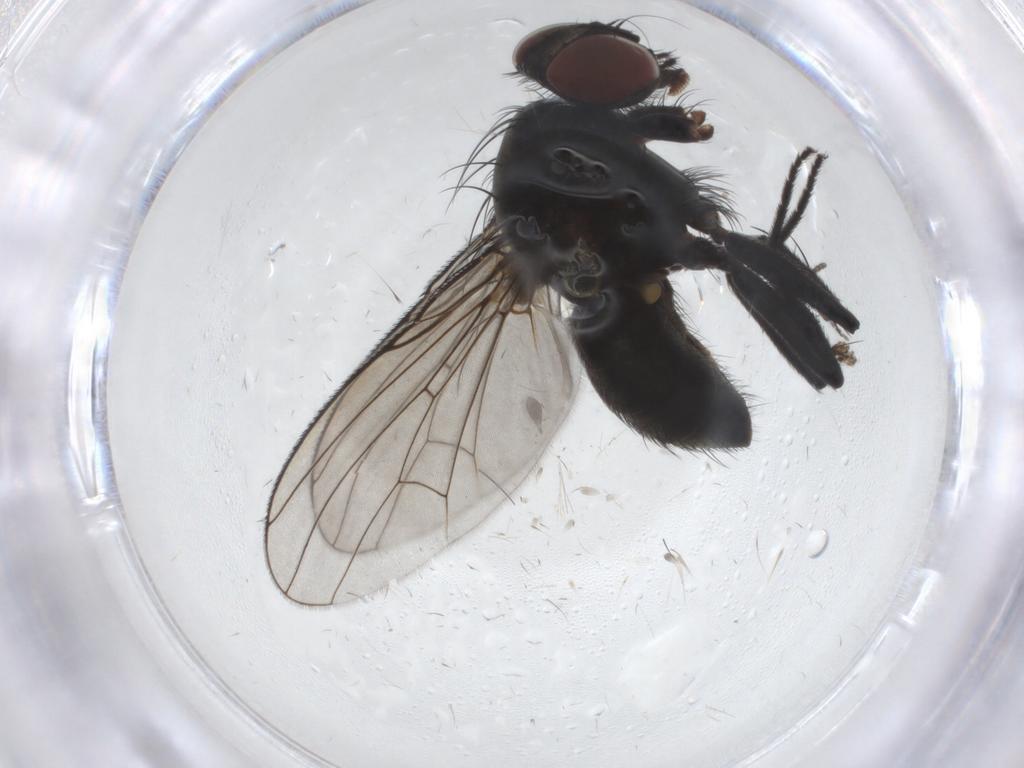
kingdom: Animalia
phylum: Arthropoda
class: Insecta
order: Diptera
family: Muscidae
